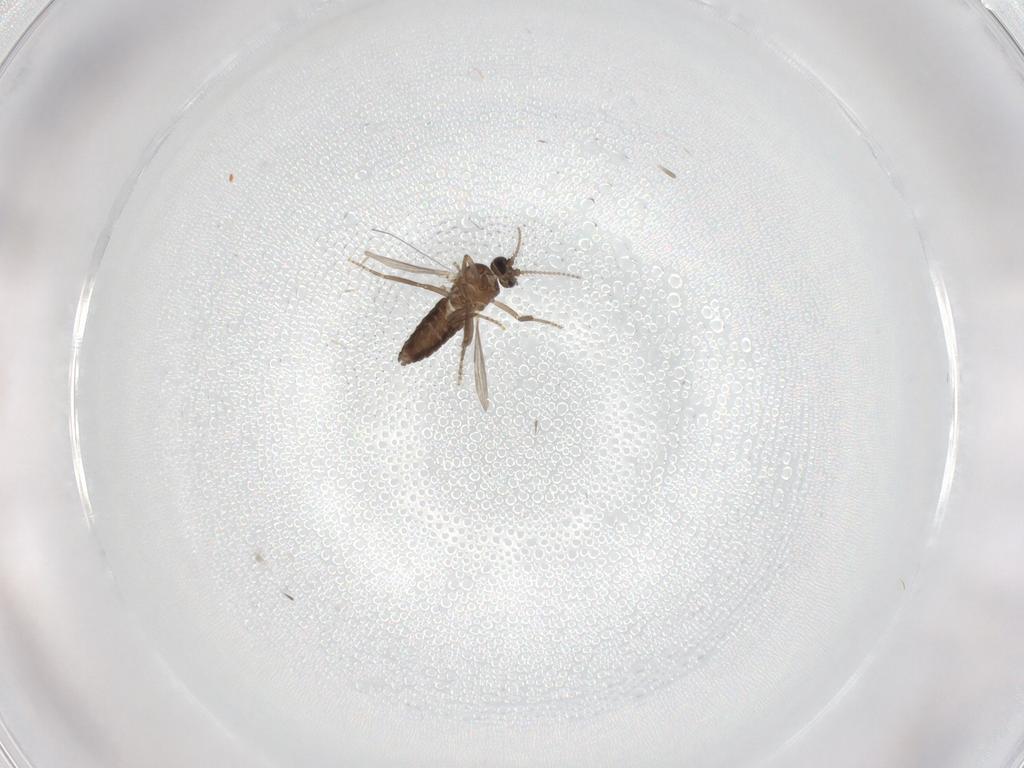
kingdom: Animalia
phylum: Arthropoda
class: Insecta
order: Diptera
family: Ceratopogonidae
